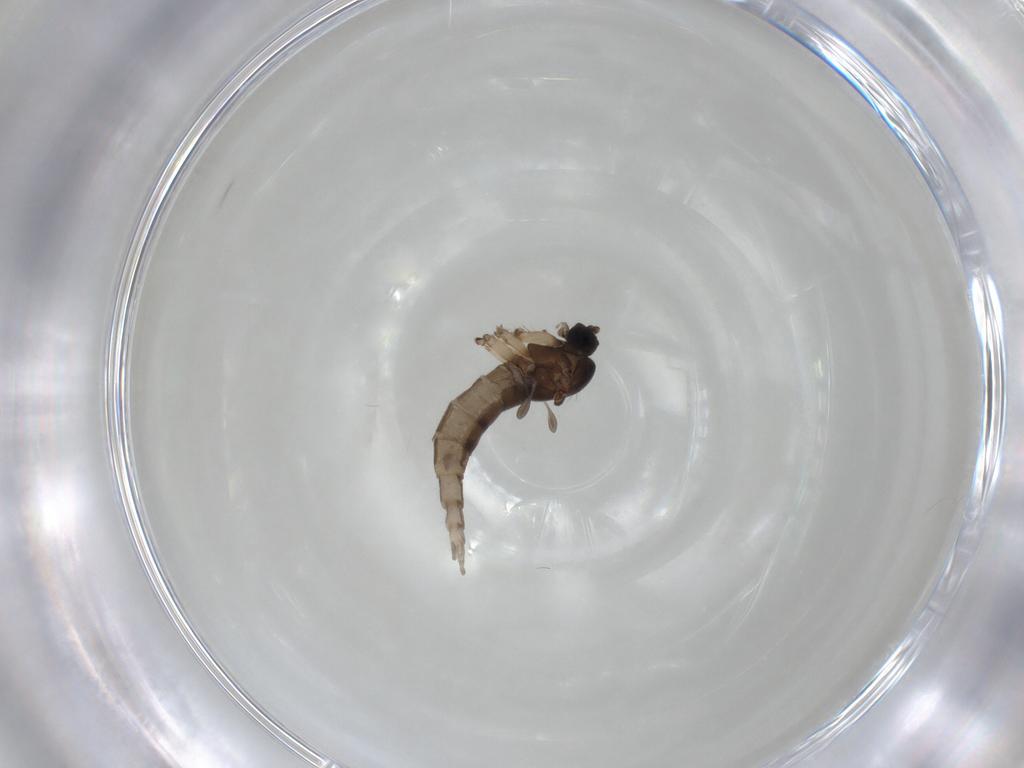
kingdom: Animalia
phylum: Arthropoda
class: Insecta
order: Diptera
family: Sciaridae
